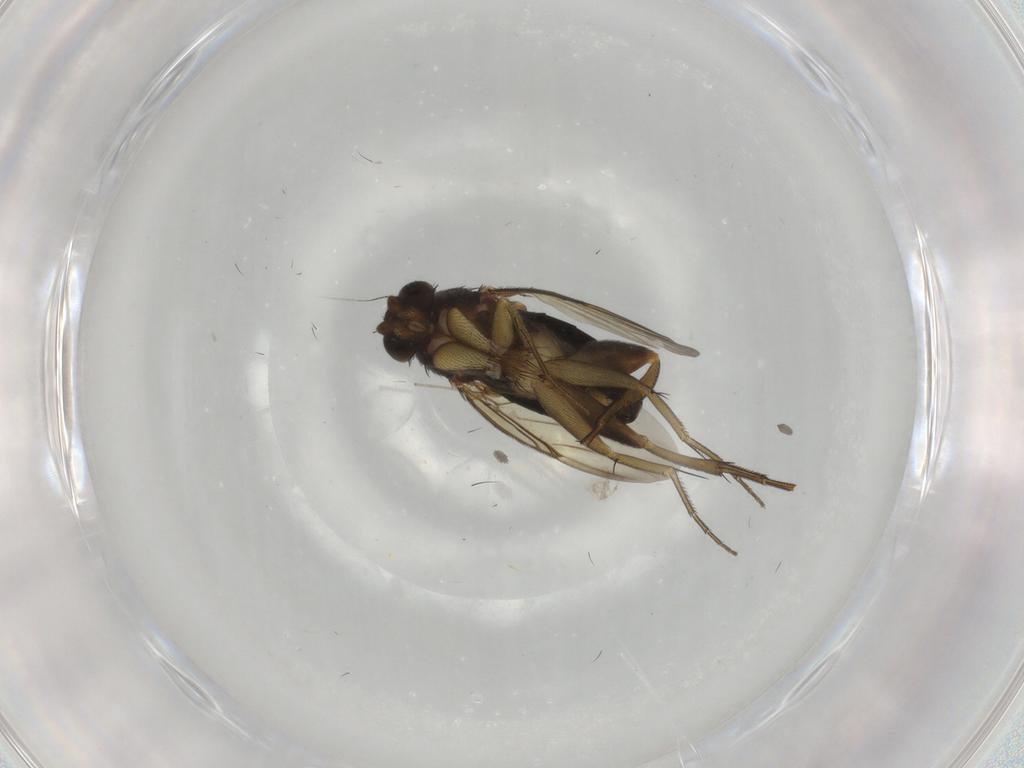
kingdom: Animalia
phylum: Arthropoda
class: Insecta
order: Diptera
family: Phoridae
